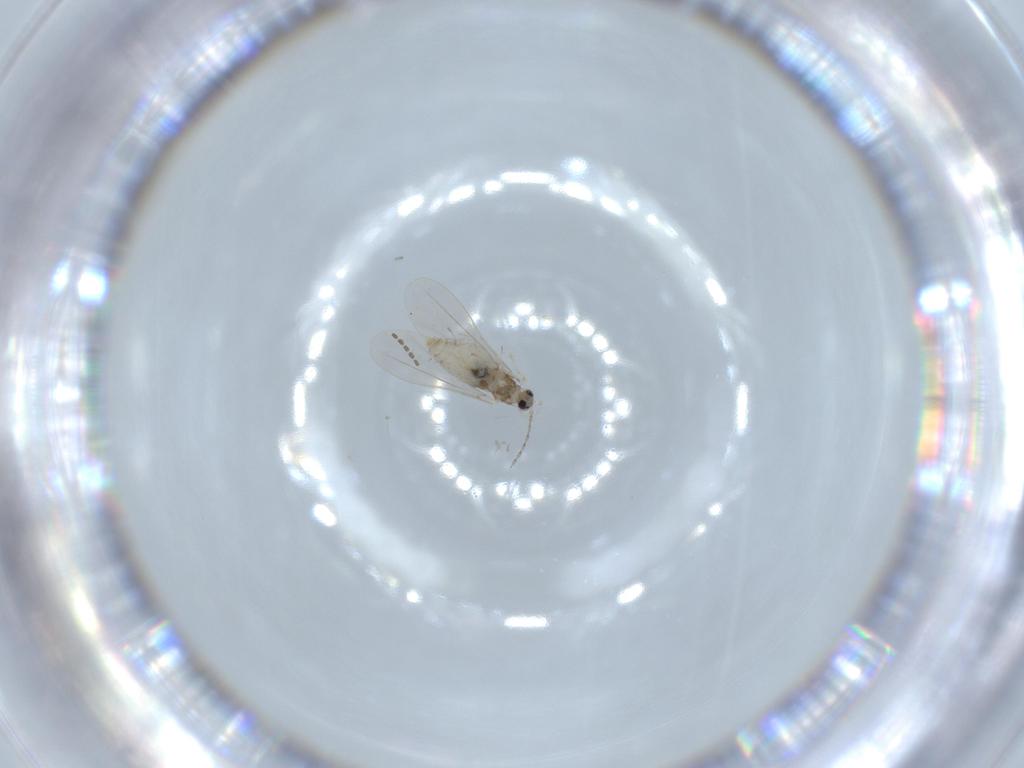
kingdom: Animalia
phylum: Arthropoda
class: Insecta
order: Diptera
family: Cecidomyiidae
